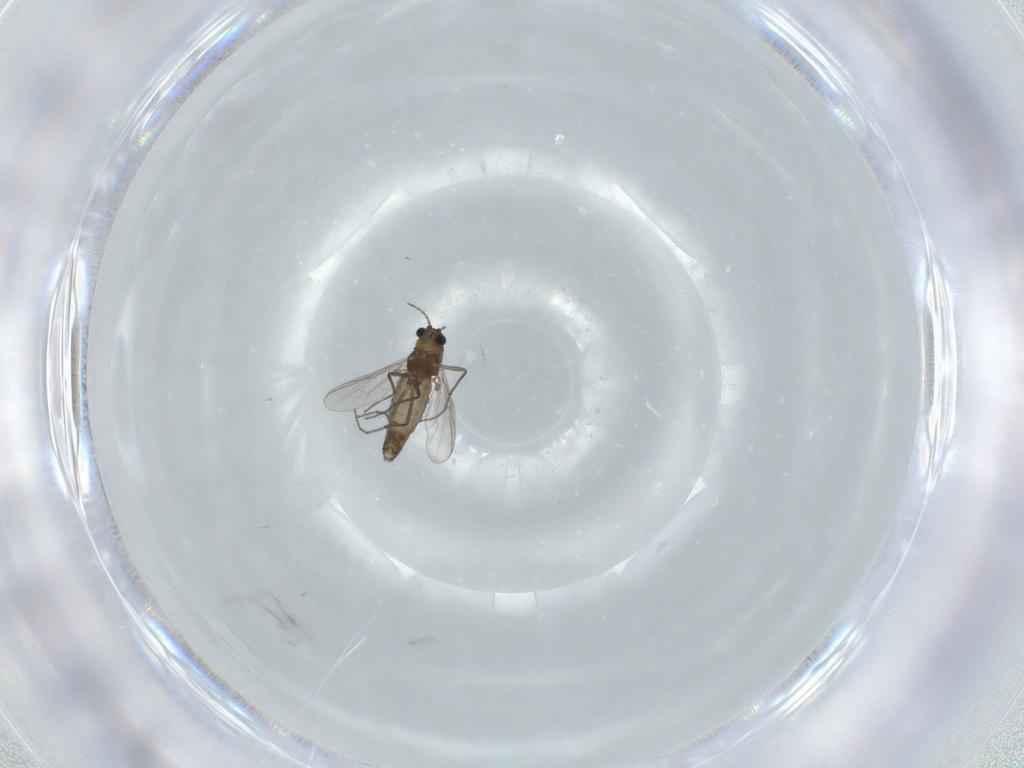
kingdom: Animalia
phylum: Arthropoda
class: Insecta
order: Diptera
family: Chironomidae
